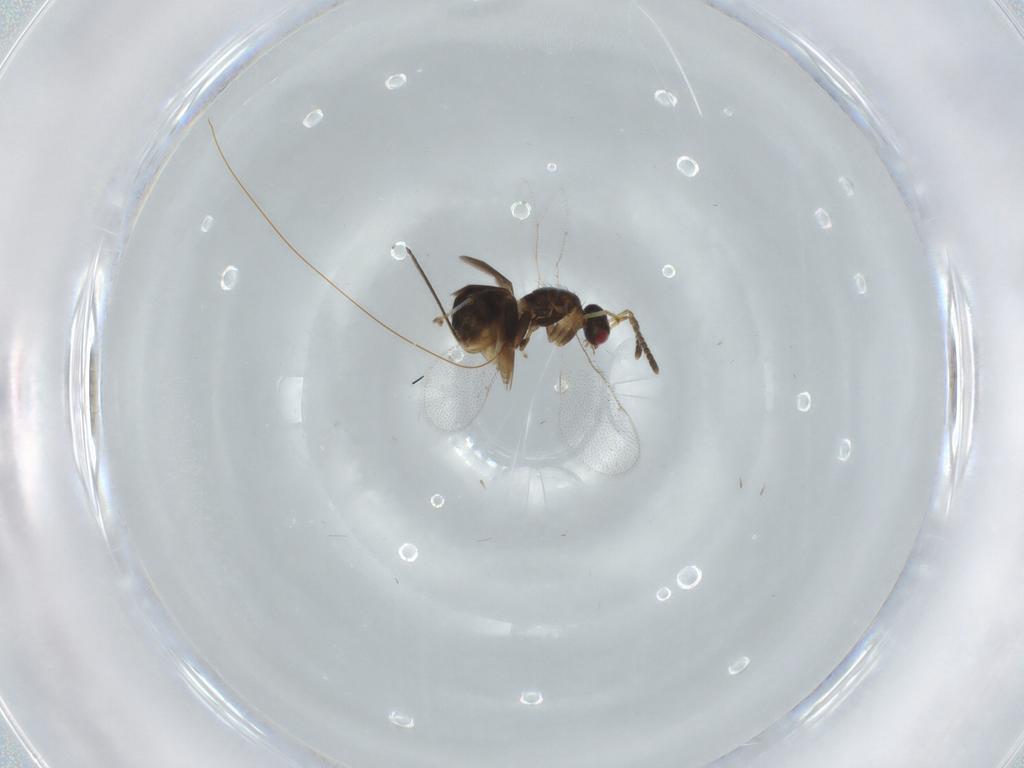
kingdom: Animalia
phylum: Arthropoda
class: Insecta
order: Hymenoptera
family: Torymidae
